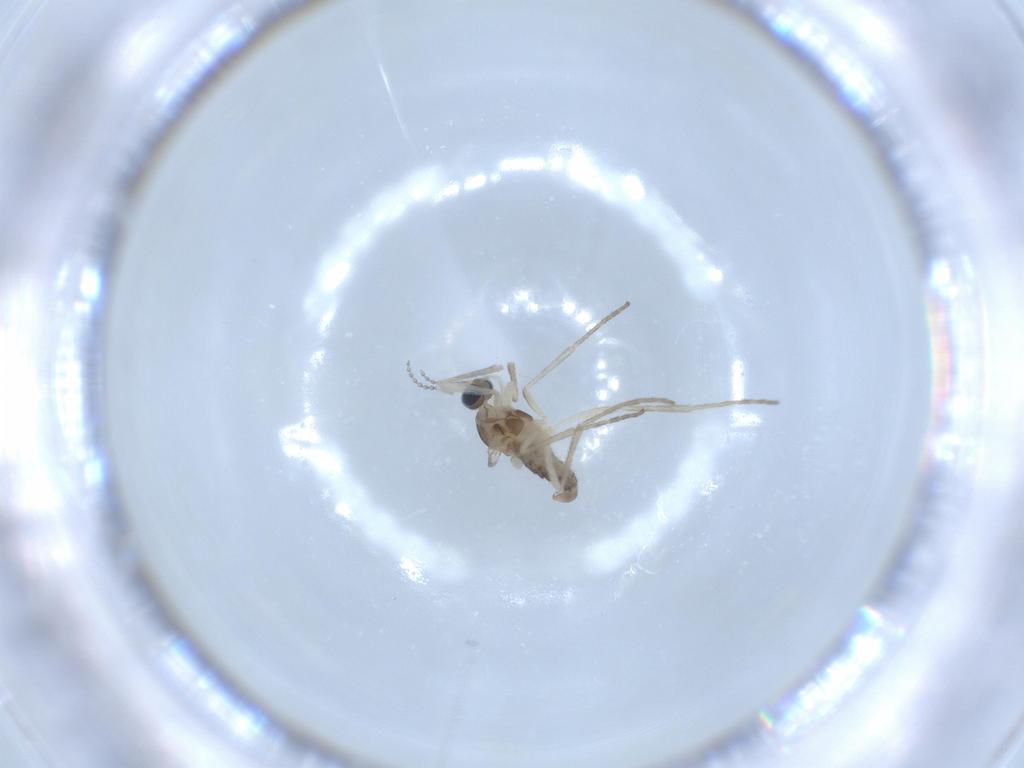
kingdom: Animalia
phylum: Arthropoda
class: Insecta
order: Diptera
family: Cecidomyiidae
